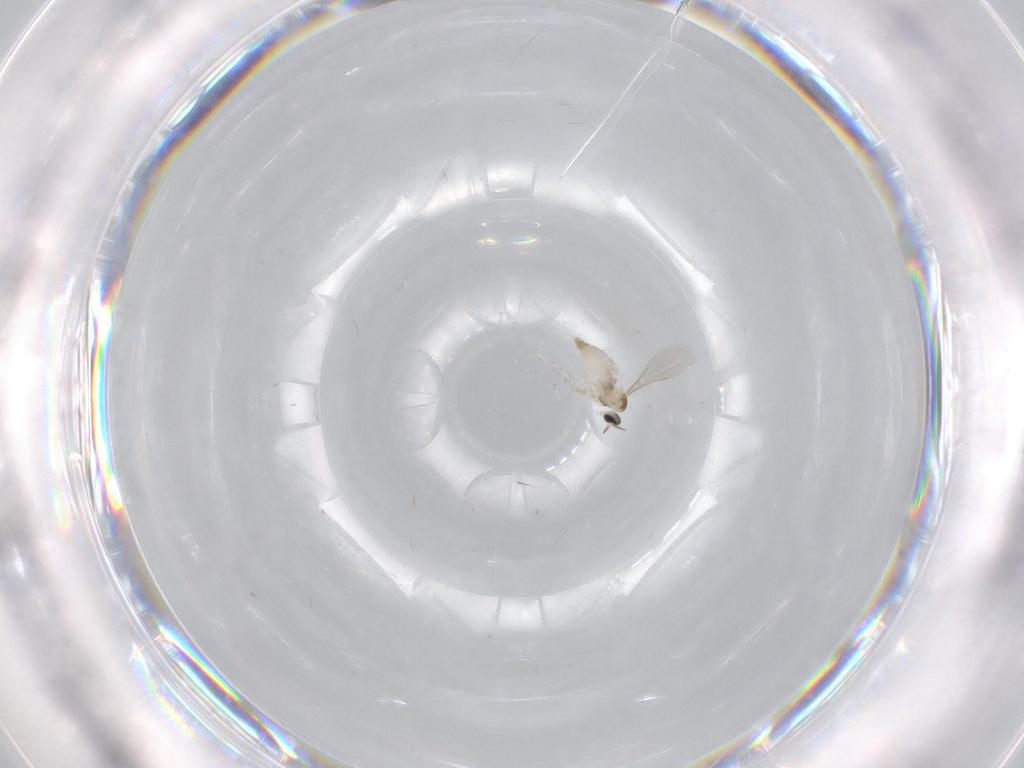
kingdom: Animalia
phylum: Arthropoda
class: Insecta
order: Diptera
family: Chironomidae
